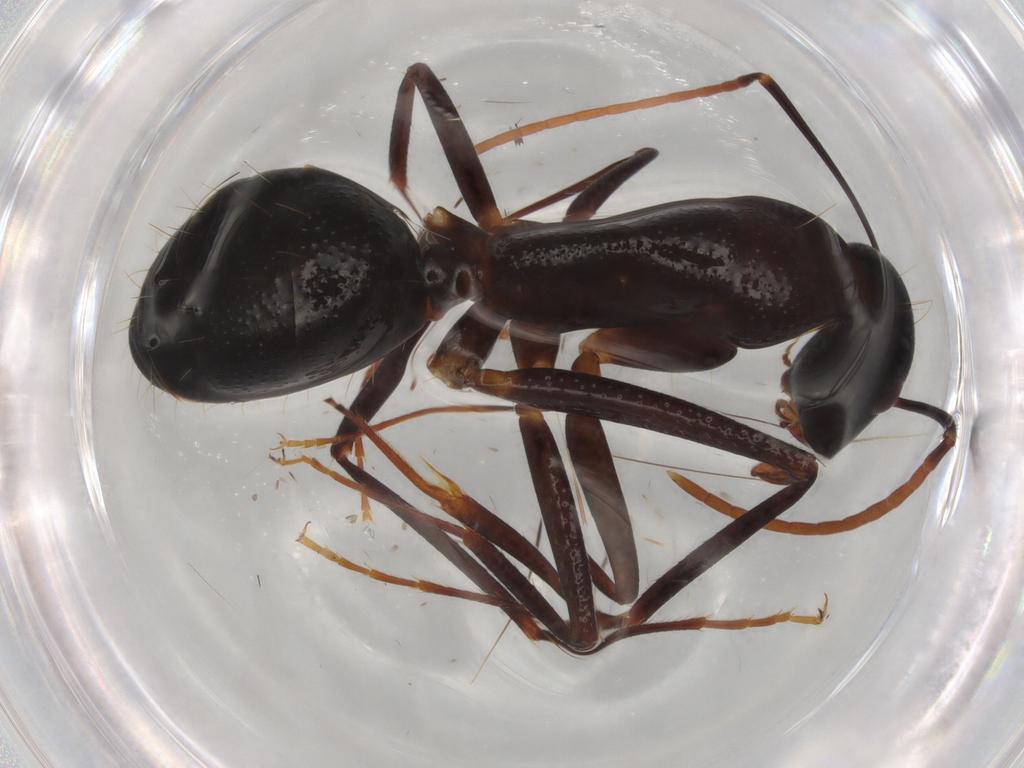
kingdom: Animalia
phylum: Arthropoda
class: Insecta
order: Hymenoptera
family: Formicidae
